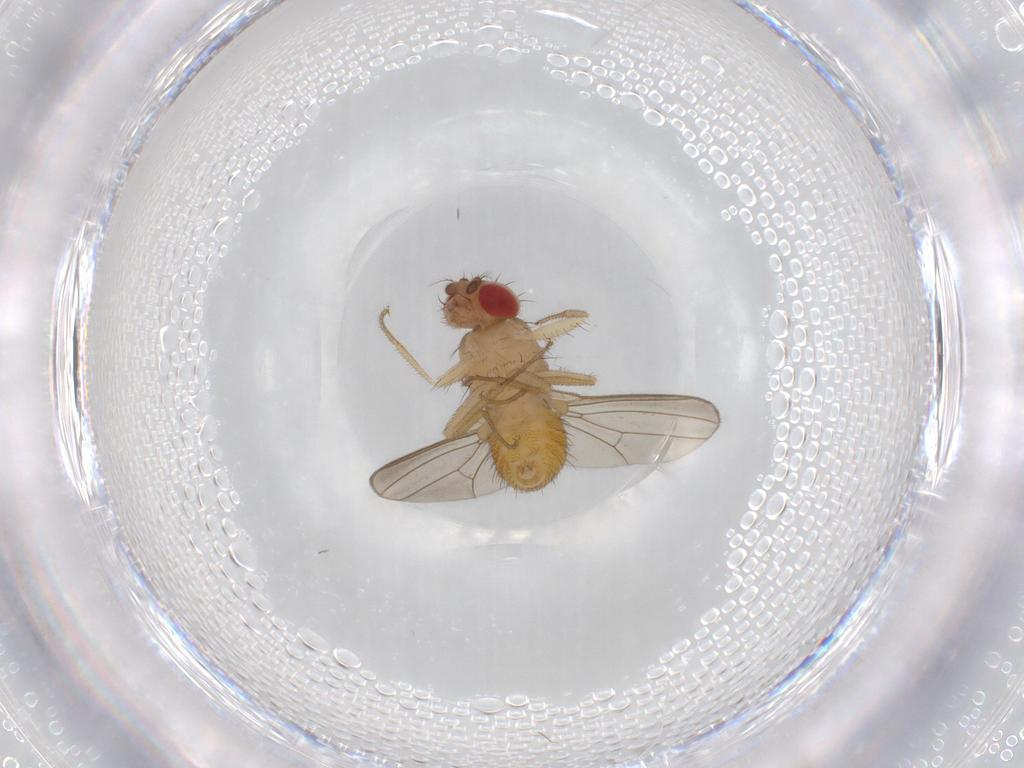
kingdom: Animalia
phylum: Arthropoda
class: Insecta
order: Diptera
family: Drosophilidae
